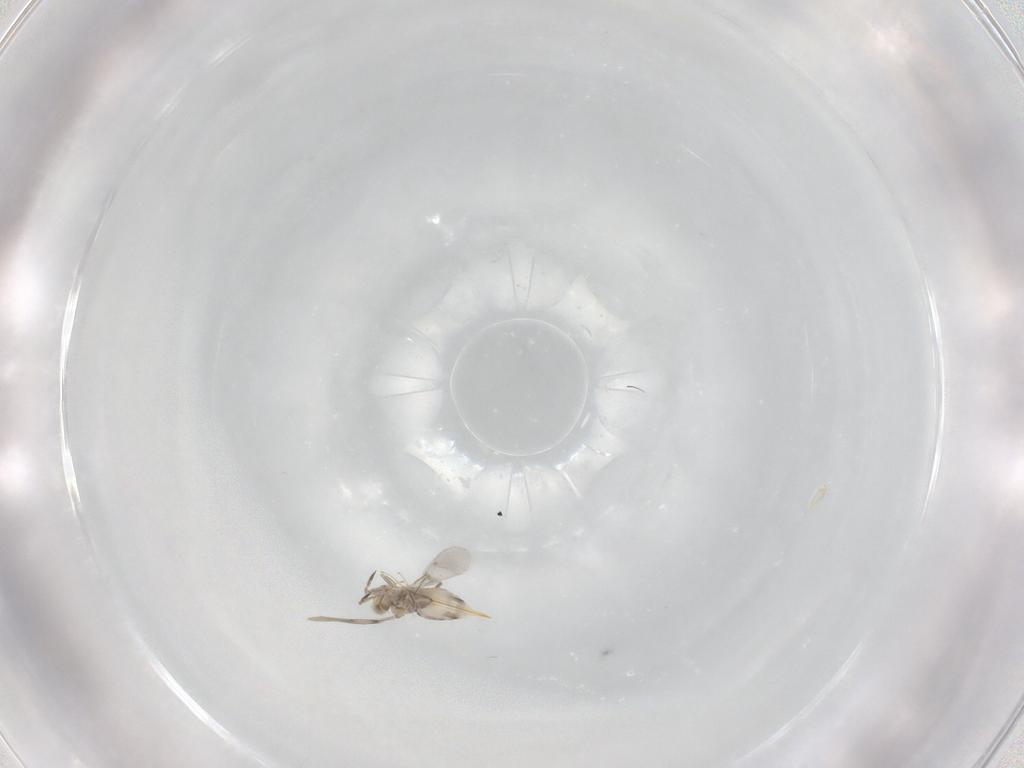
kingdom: Animalia
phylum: Arthropoda
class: Insecta
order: Hymenoptera
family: Signiphoridae
